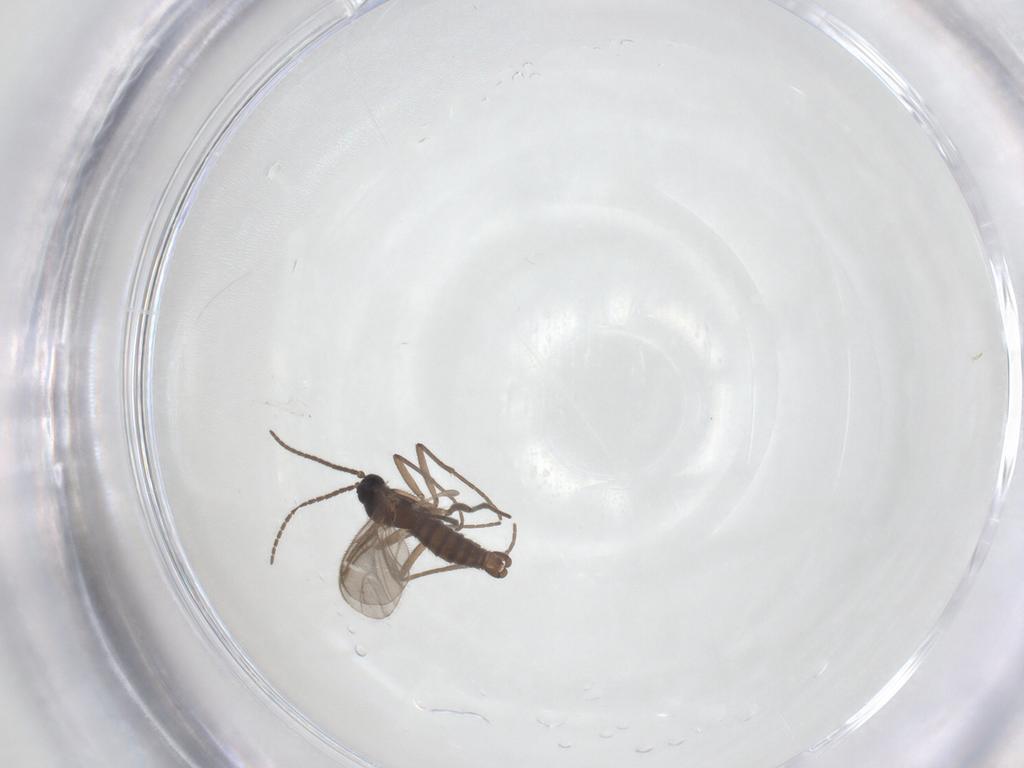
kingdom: Animalia
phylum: Arthropoda
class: Insecta
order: Diptera
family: Sciaridae
